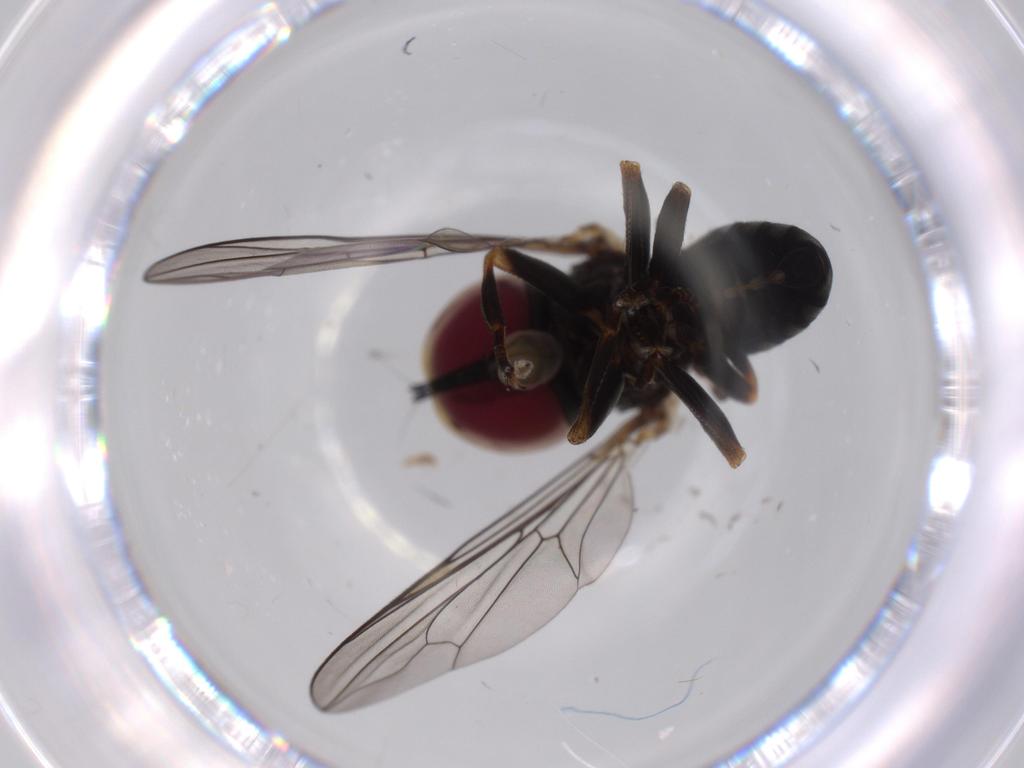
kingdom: Animalia
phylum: Arthropoda
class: Insecta
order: Diptera
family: Pipunculidae
